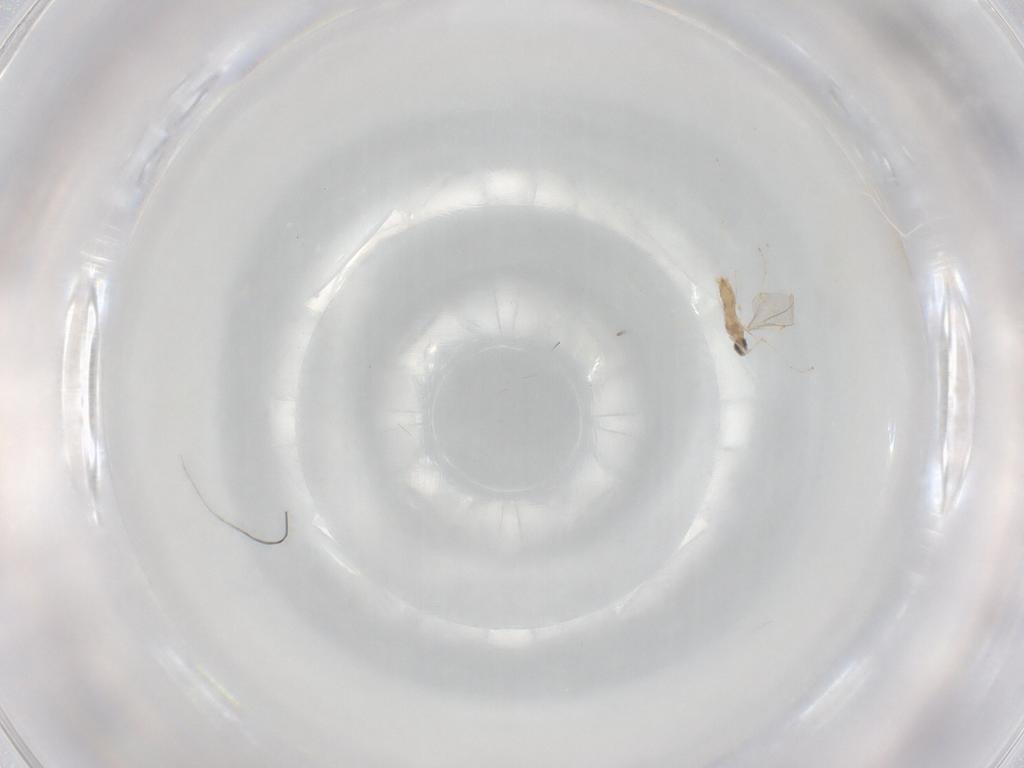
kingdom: Animalia
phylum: Arthropoda
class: Insecta
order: Diptera
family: Cecidomyiidae
